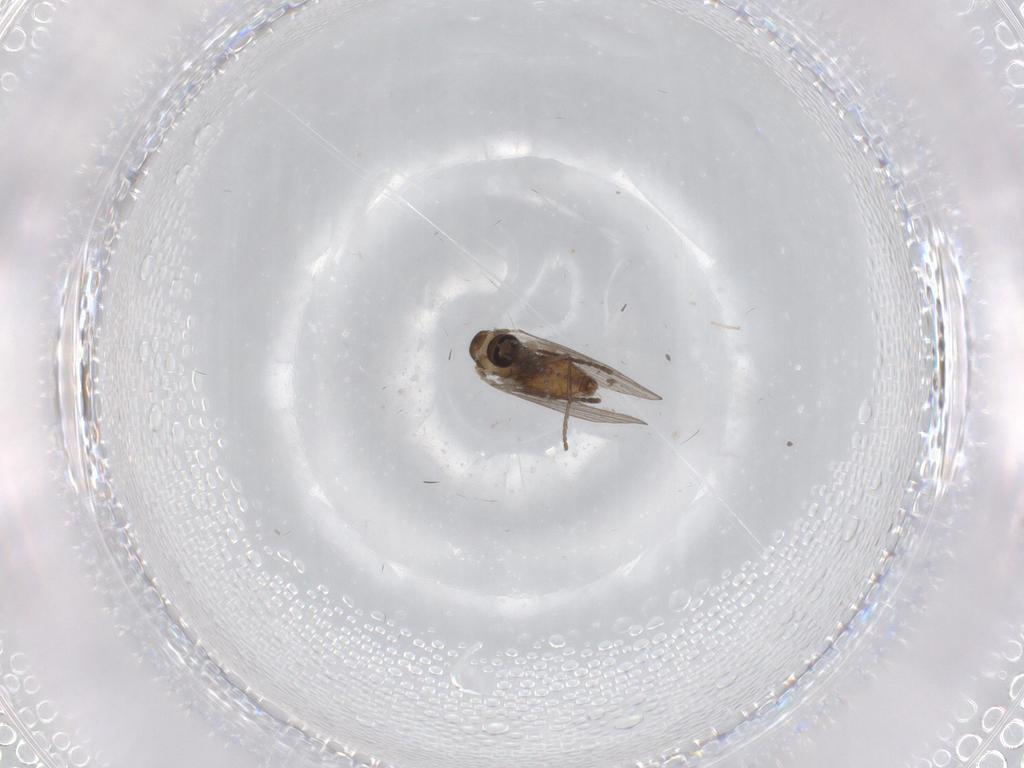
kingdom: Animalia
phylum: Arthropoda
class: Insecta
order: Diptera
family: Psychodidae
